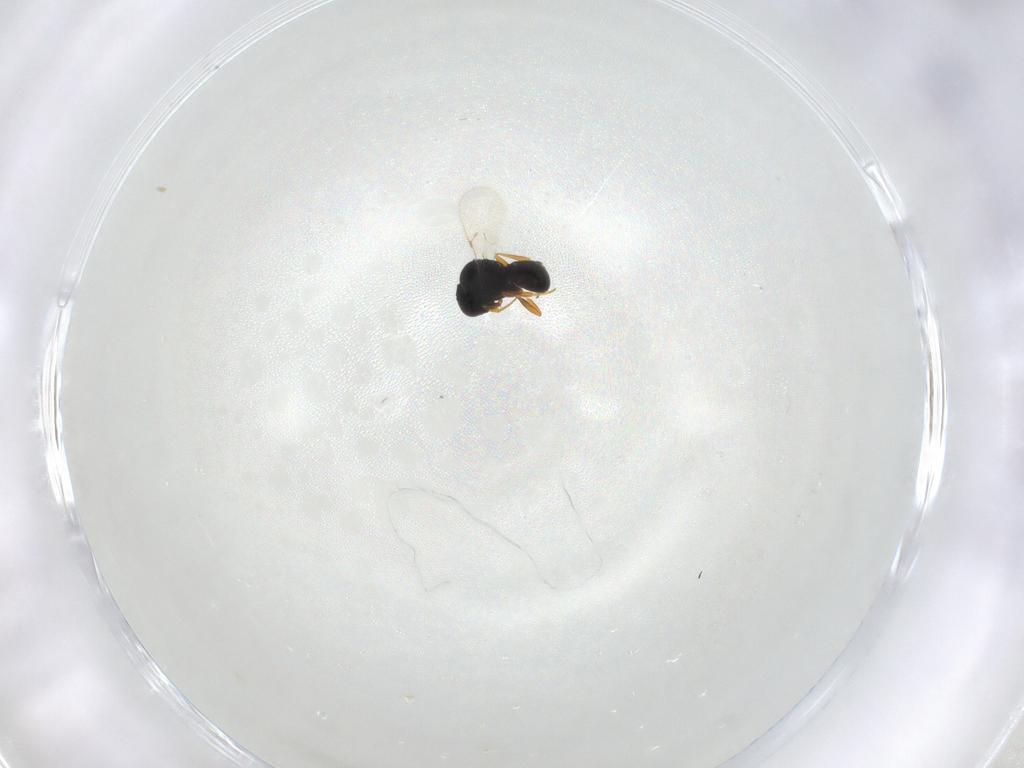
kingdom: Animalia
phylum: Arthropoda
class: Insecta
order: Hymenoptera
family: Scelionidae
